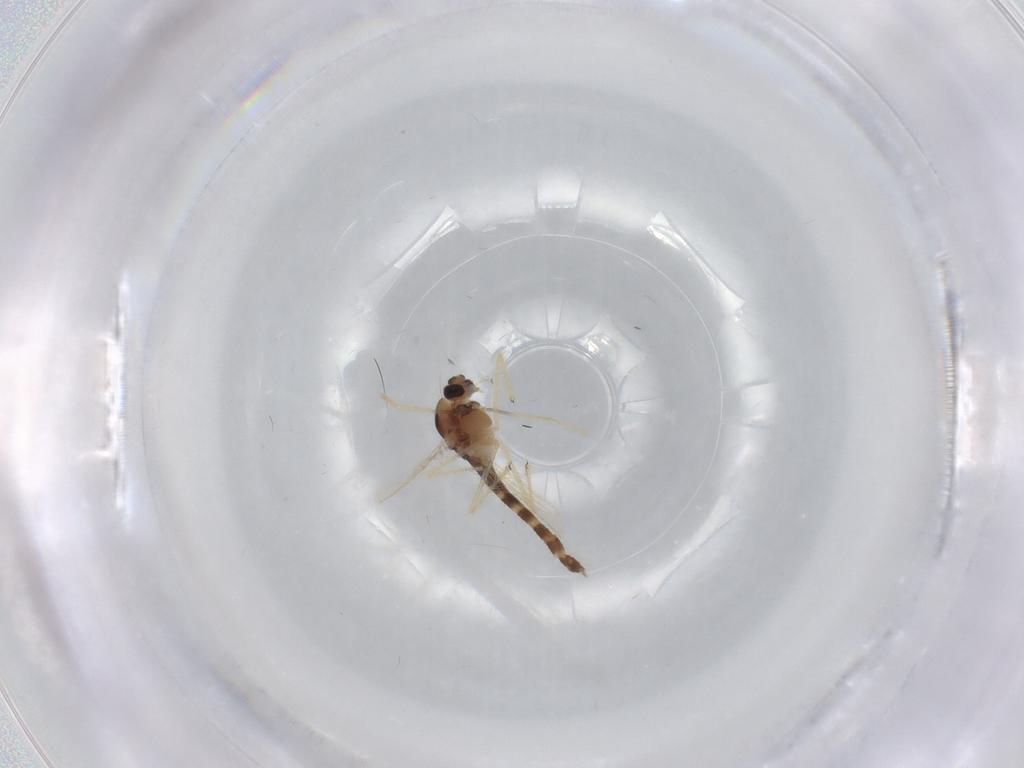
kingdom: Animalia
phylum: Arthropoda
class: Insecta
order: Diptera
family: Chironomidae
